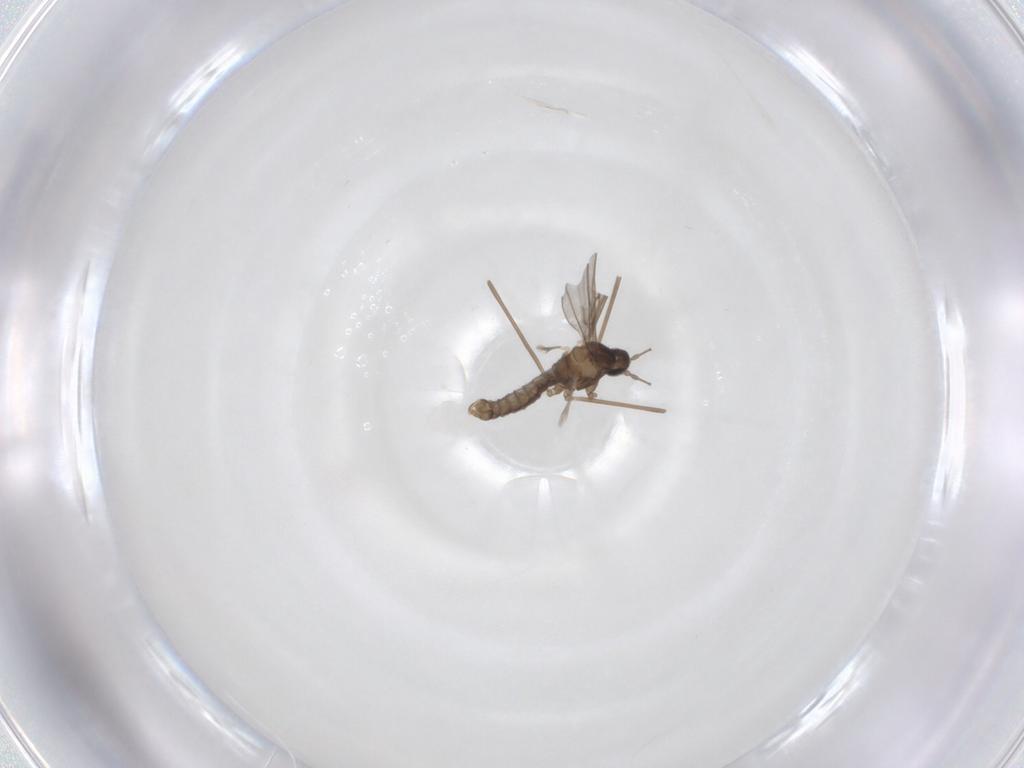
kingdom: Animalia
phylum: Arthropoda
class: Insecta
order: Diptera
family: Cecidomyiidae
